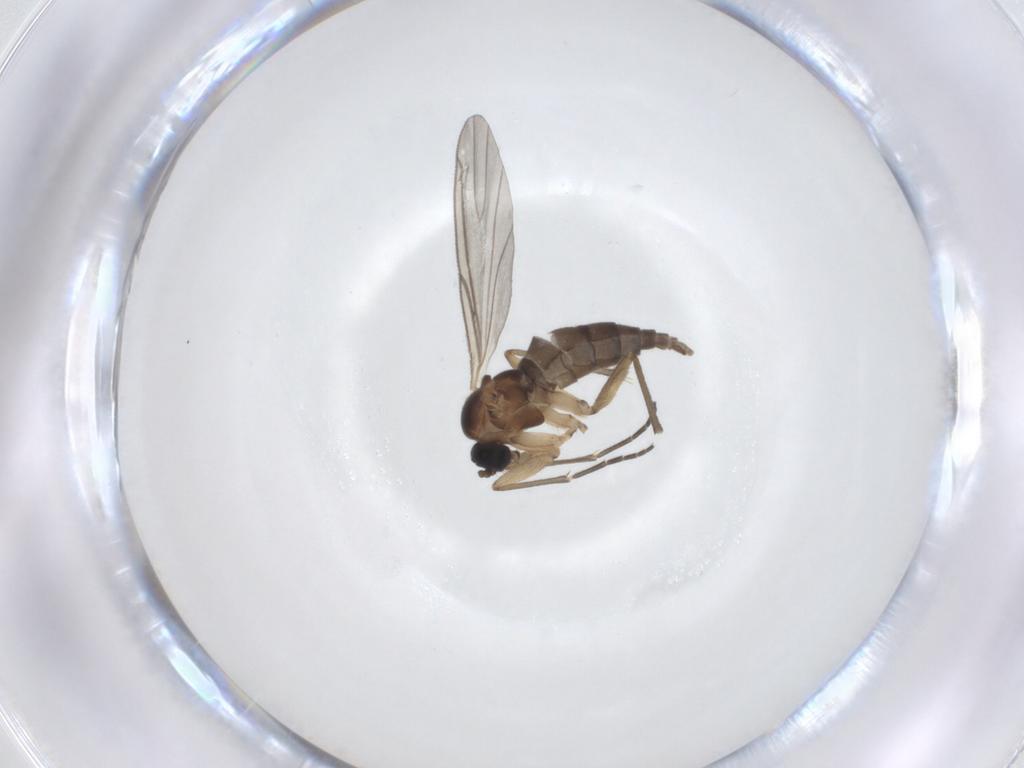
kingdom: Animalia
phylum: Arthropoda
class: Insecta
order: Diptera
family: Sciaridae
